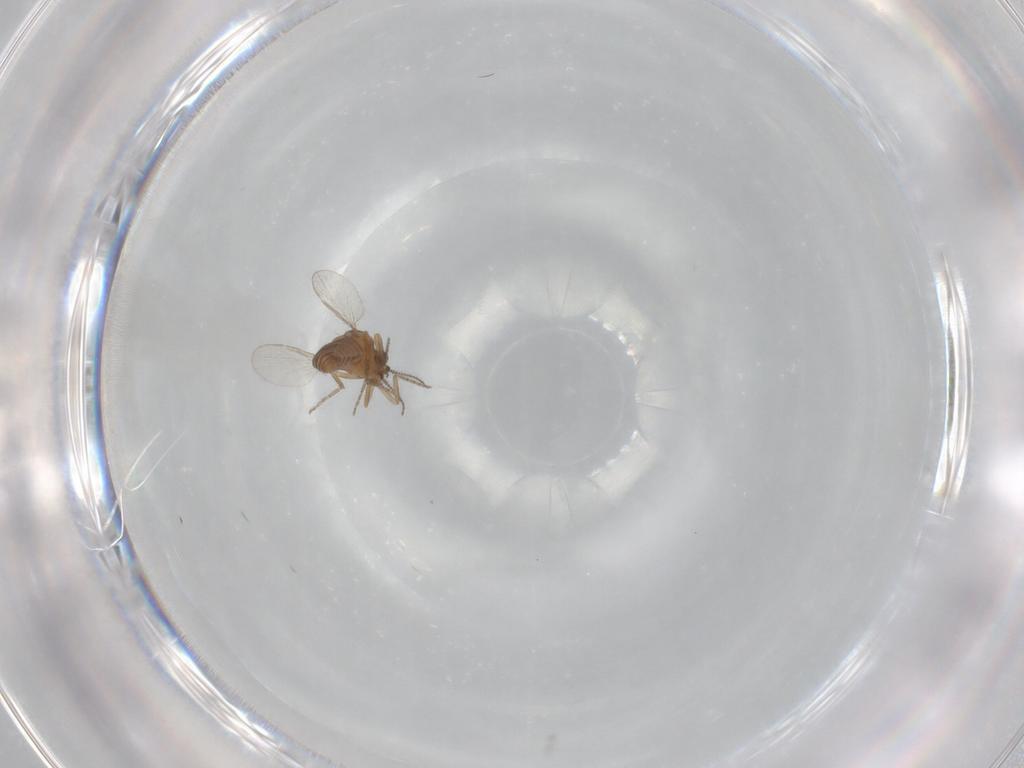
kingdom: Animalia
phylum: Arthropoda
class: Insecta
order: Diptera
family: Ceratopogonidae
